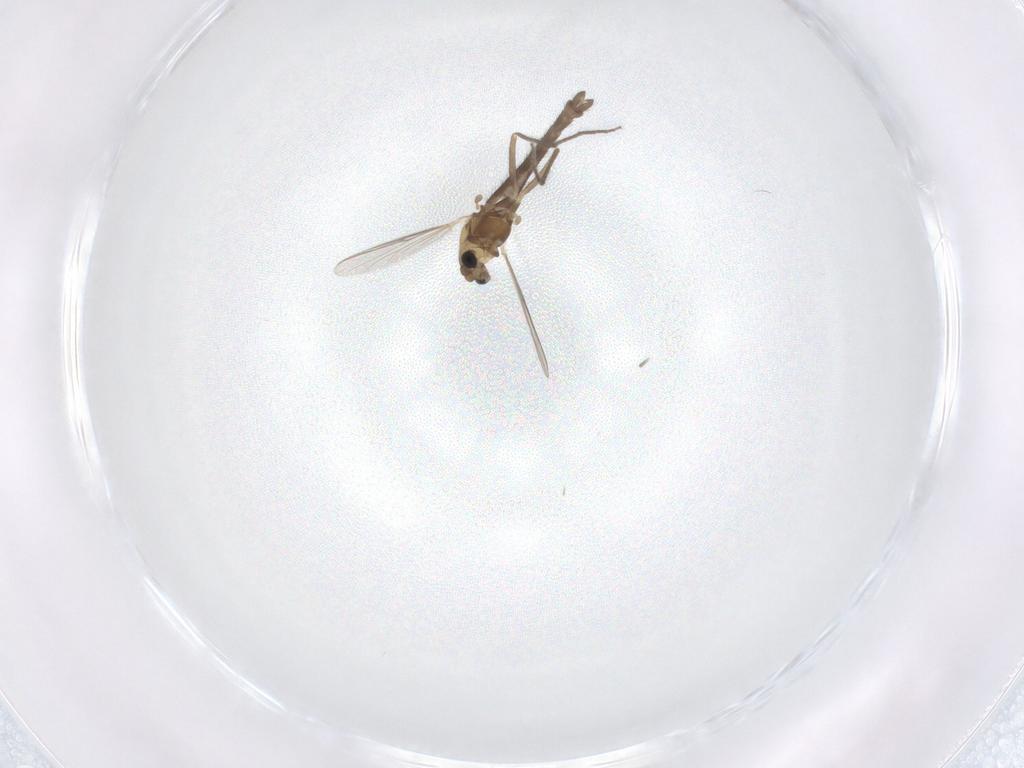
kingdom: Animalia
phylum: Arthropoda
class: Insecta
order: Diptera
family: Chironomidae
